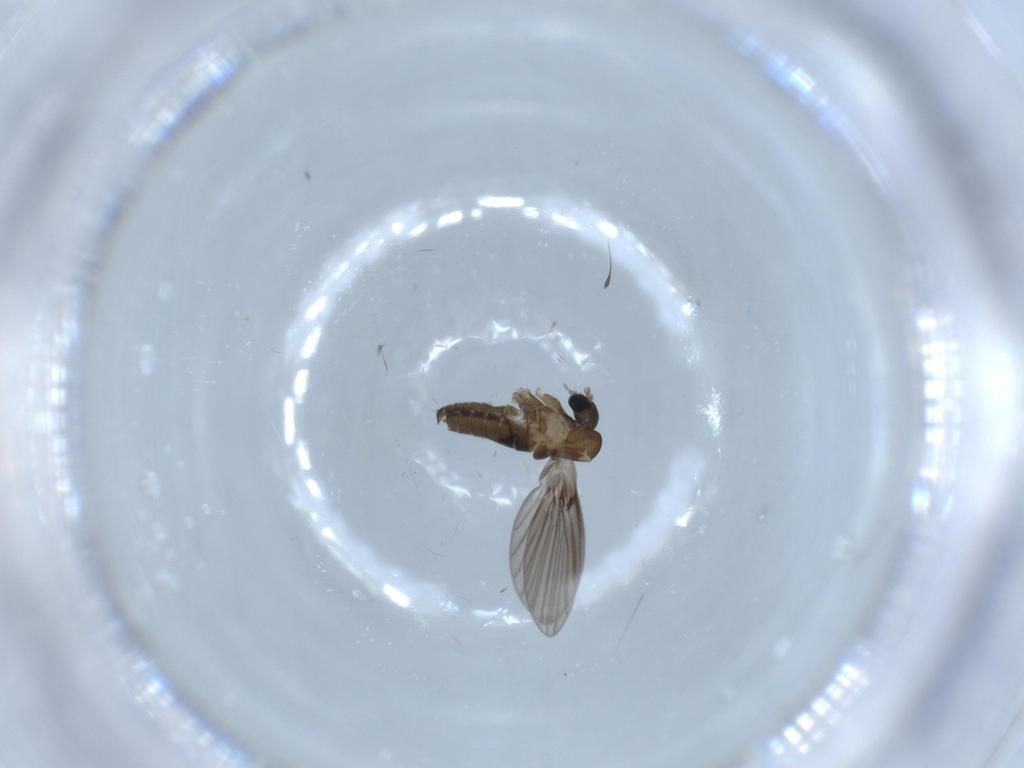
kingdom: Animalia
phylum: Arthropoda
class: Insecta
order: Diptera
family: Psychodidae
